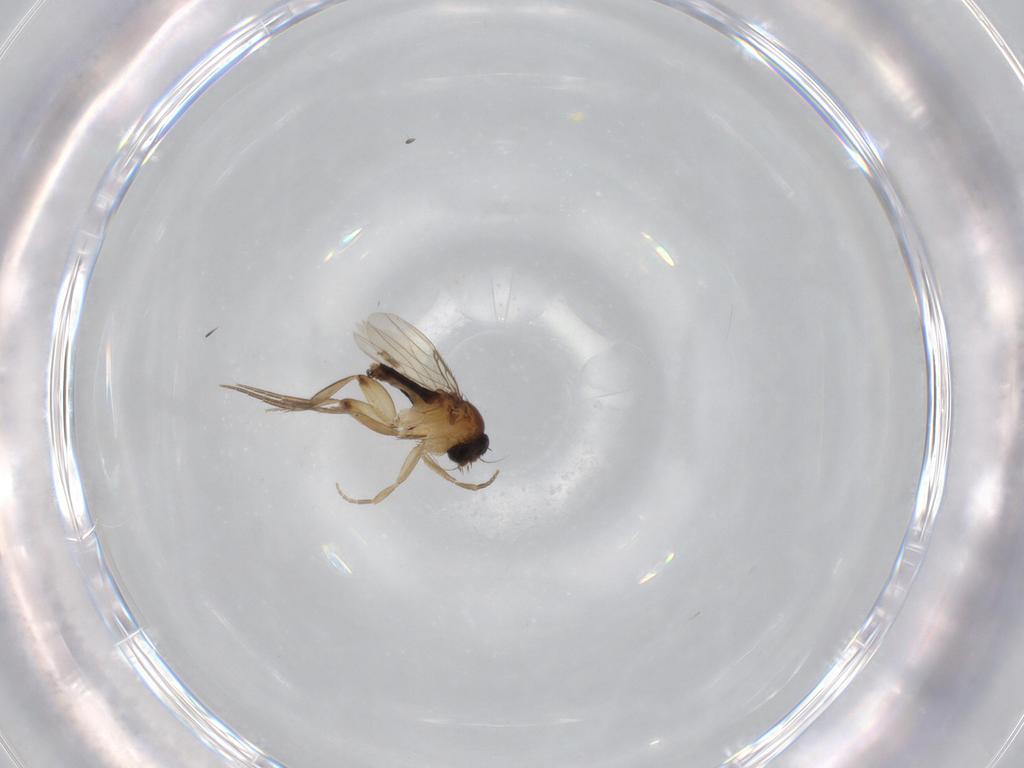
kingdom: Animalia
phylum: Arthropoda
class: Insecta
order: Diptera
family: Phoridae
